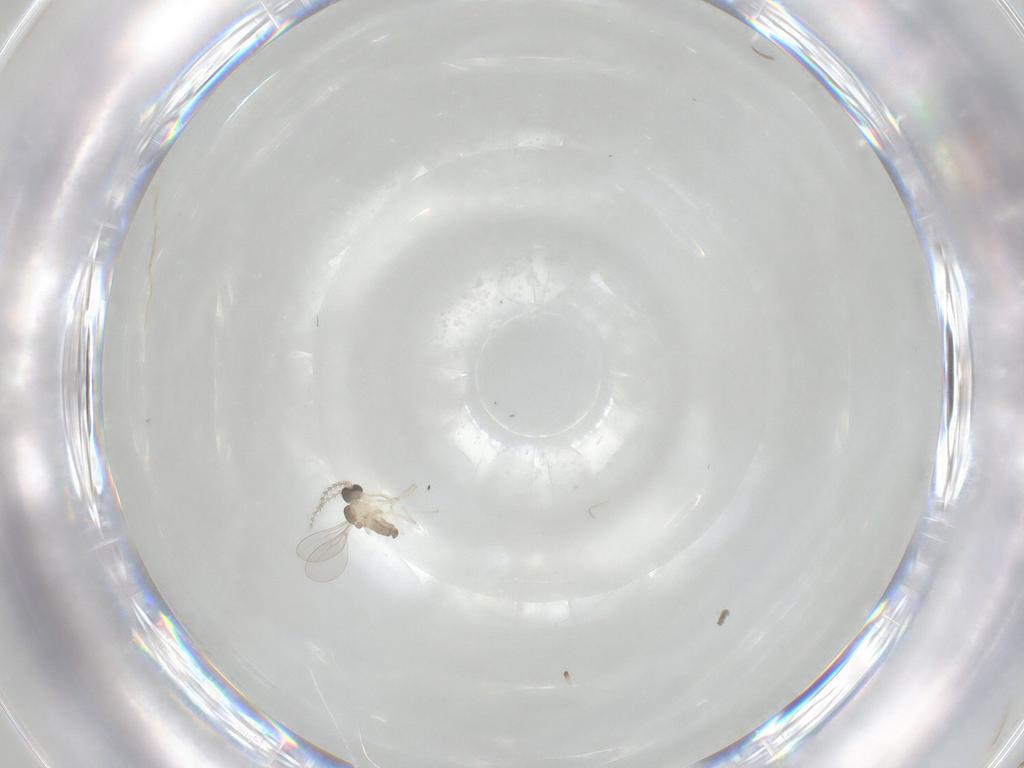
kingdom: Animalia
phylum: Arthropoda
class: Insecta
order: Diptera
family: Cecidomyiidae
